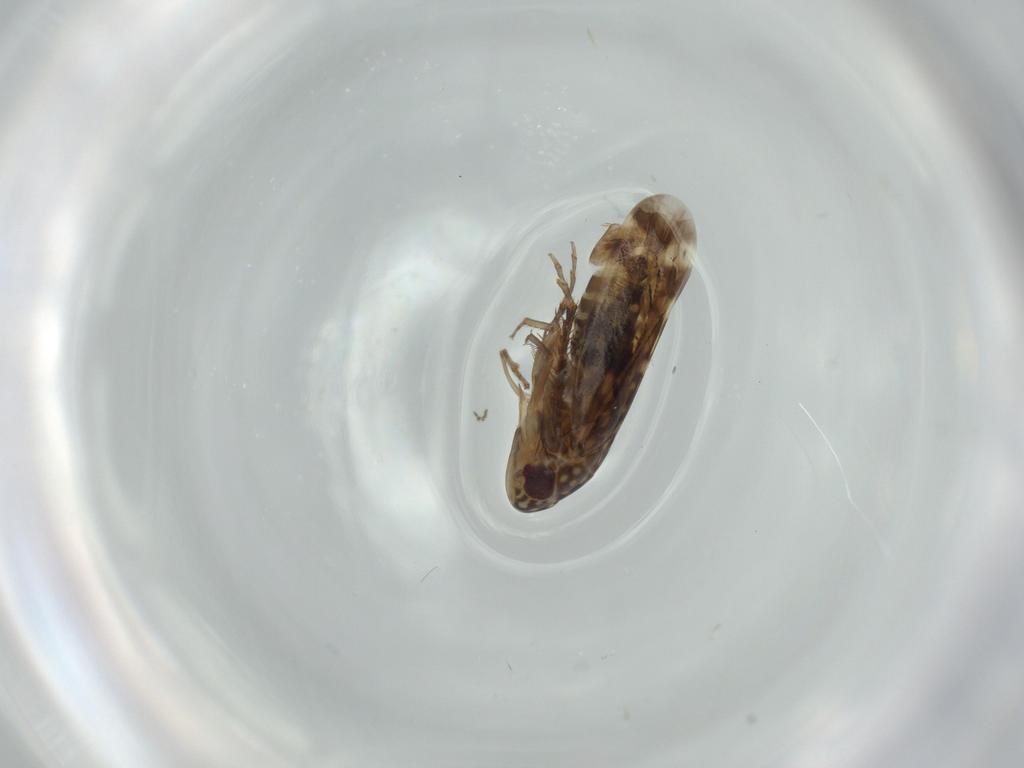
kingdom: Animalia
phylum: Arthropoda
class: Insecta
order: Hemiptera
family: Cicadellidae
